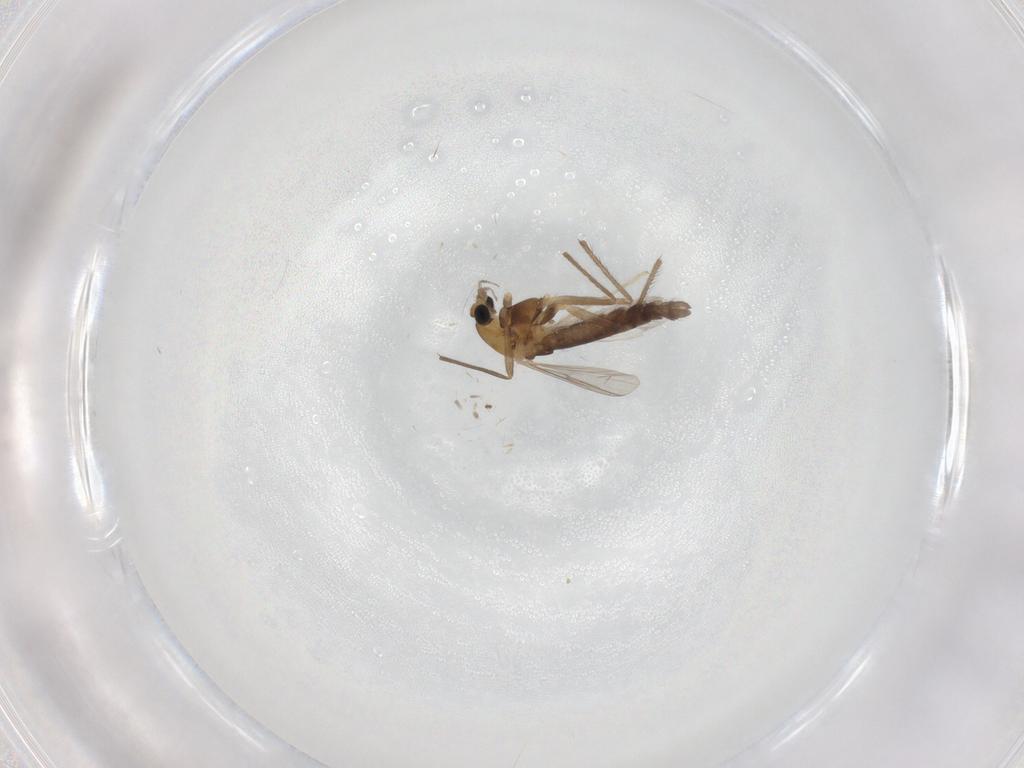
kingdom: Animalia
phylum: Arthropoda
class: Insecta
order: Diptera
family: Chironomidae
